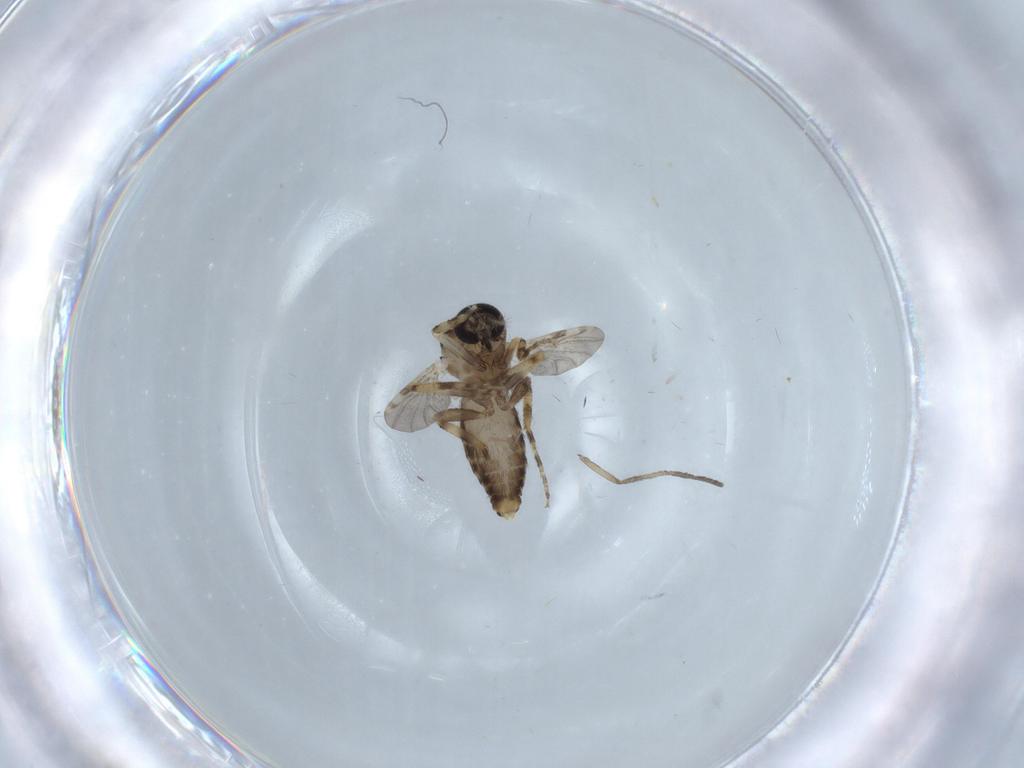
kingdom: Animalia
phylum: Arthropoda
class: Insecta
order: Diptera
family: Ceratopogonidae
